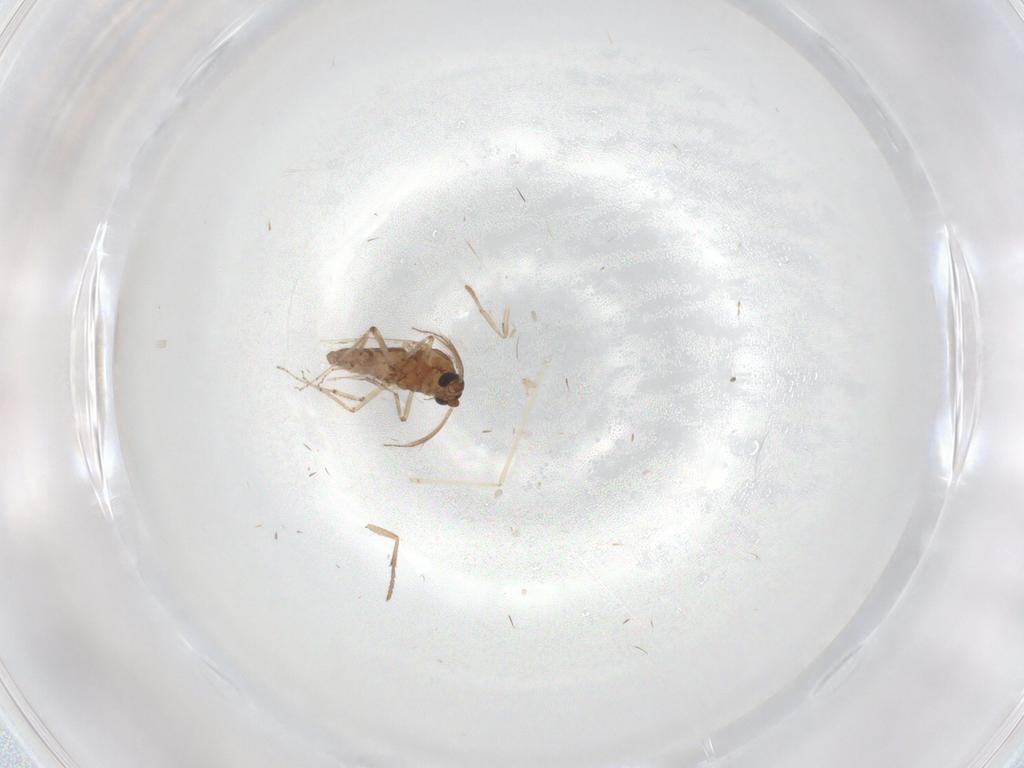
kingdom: Animalia
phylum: Arthropoda
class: Insecta
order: Diptera
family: Ceratopogonidae
